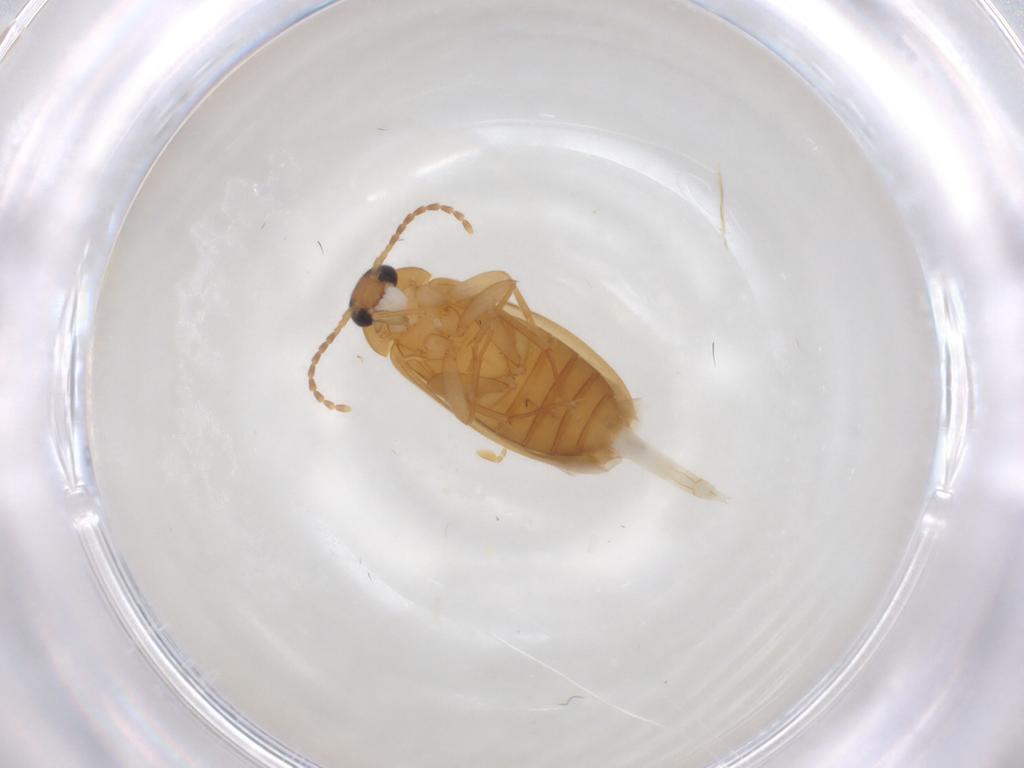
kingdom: Animalia
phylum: Arthropoda
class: Insecta
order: Coleoptera
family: Scraptiidae
